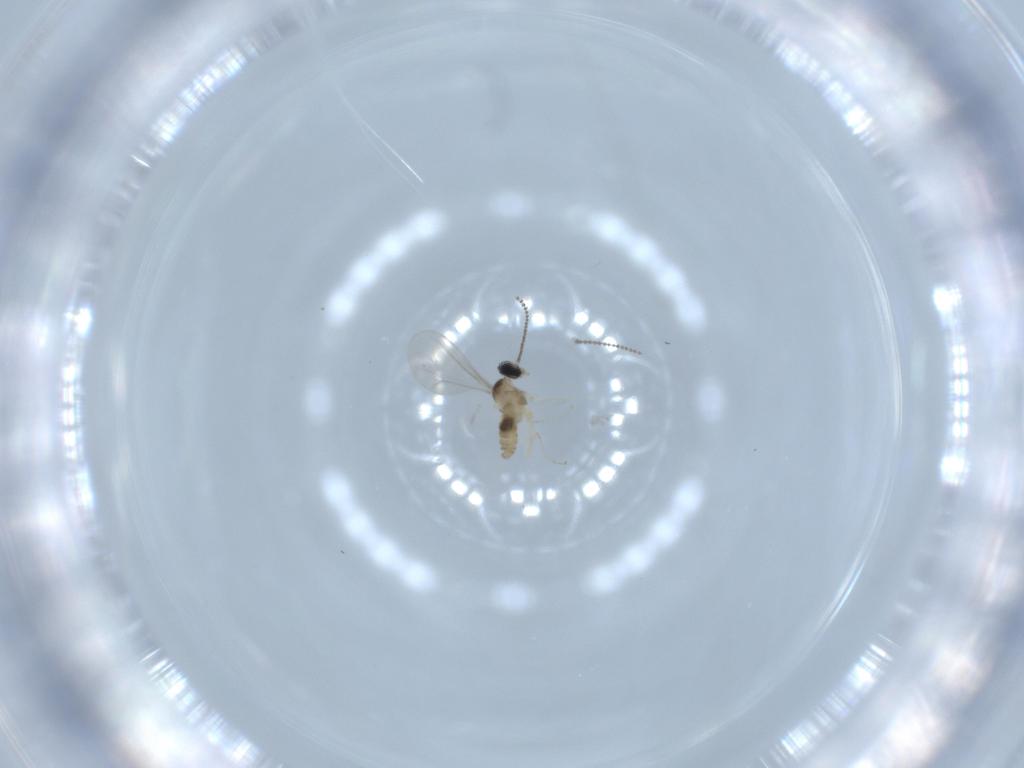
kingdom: Animalia
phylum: Arthropoda
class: Insecta
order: Diptera
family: Cecidomyiidae
